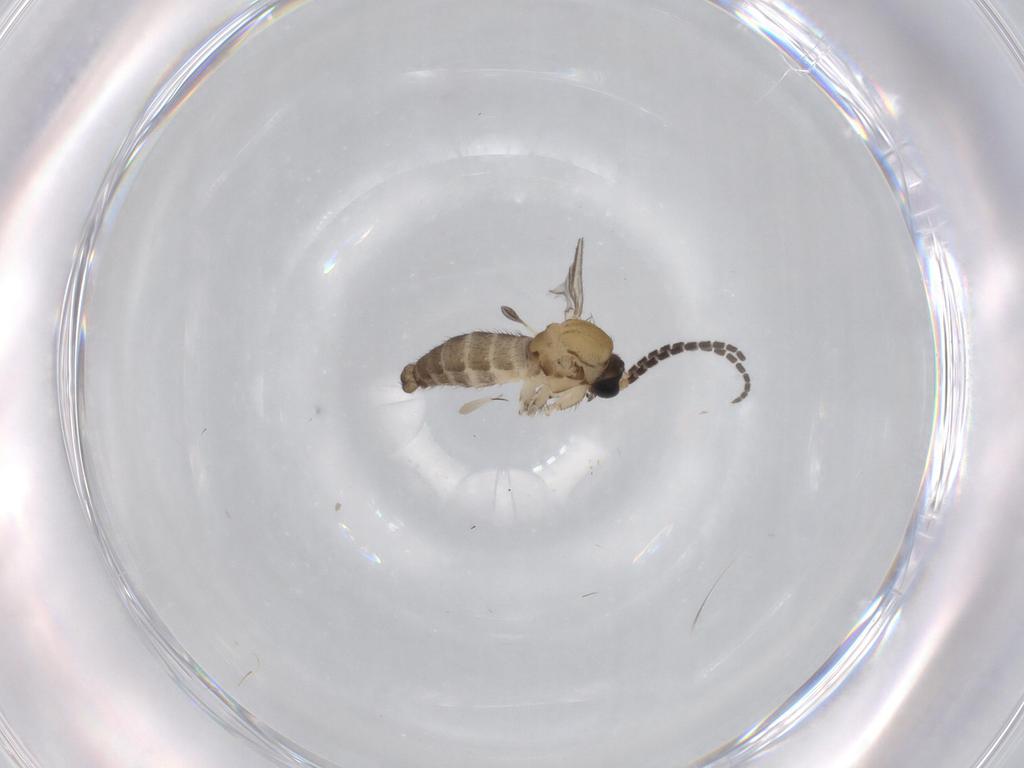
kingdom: Animalia
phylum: Arthropoda
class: Insecta
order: Diptera
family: Sciaridae
